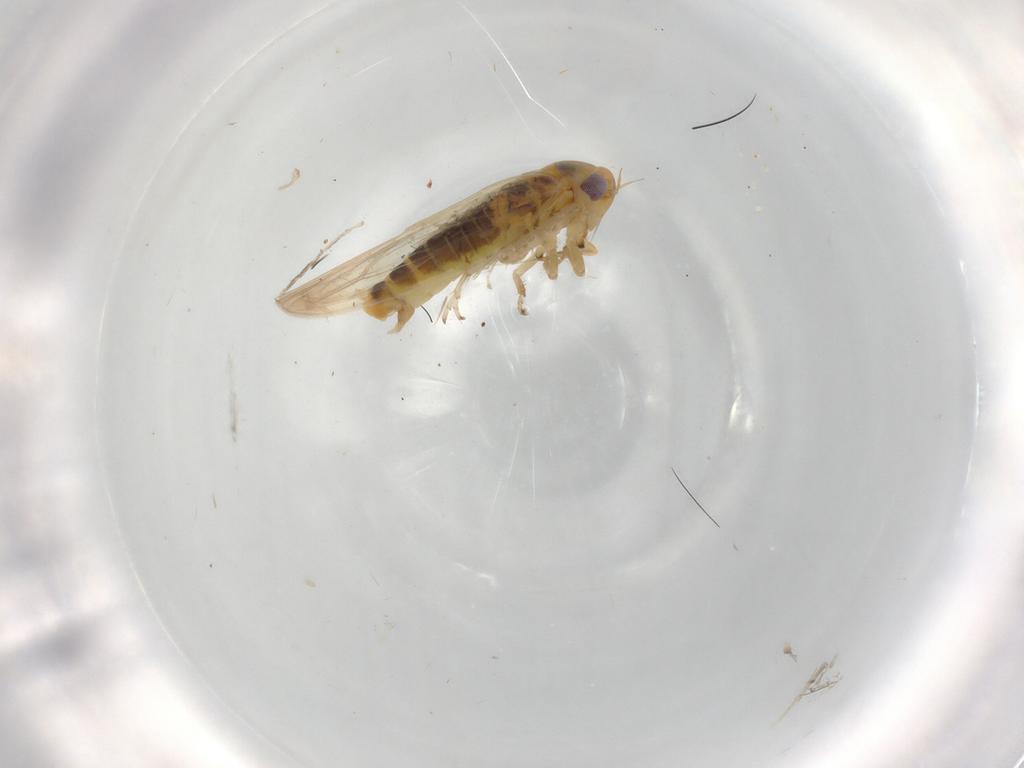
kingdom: Animalia
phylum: Arthropoda
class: Insecta
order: Hemiptera
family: Cicadellidae
